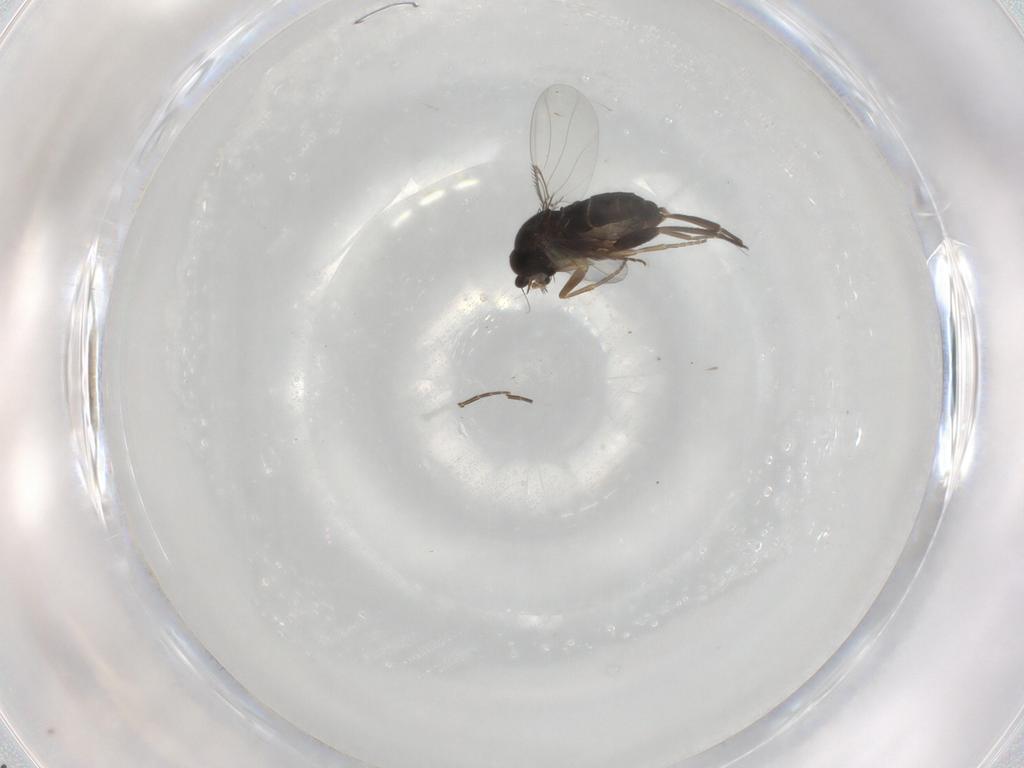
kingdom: Animalia
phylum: Arthropoda
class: Insecta
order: Diptera
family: Phoridae
